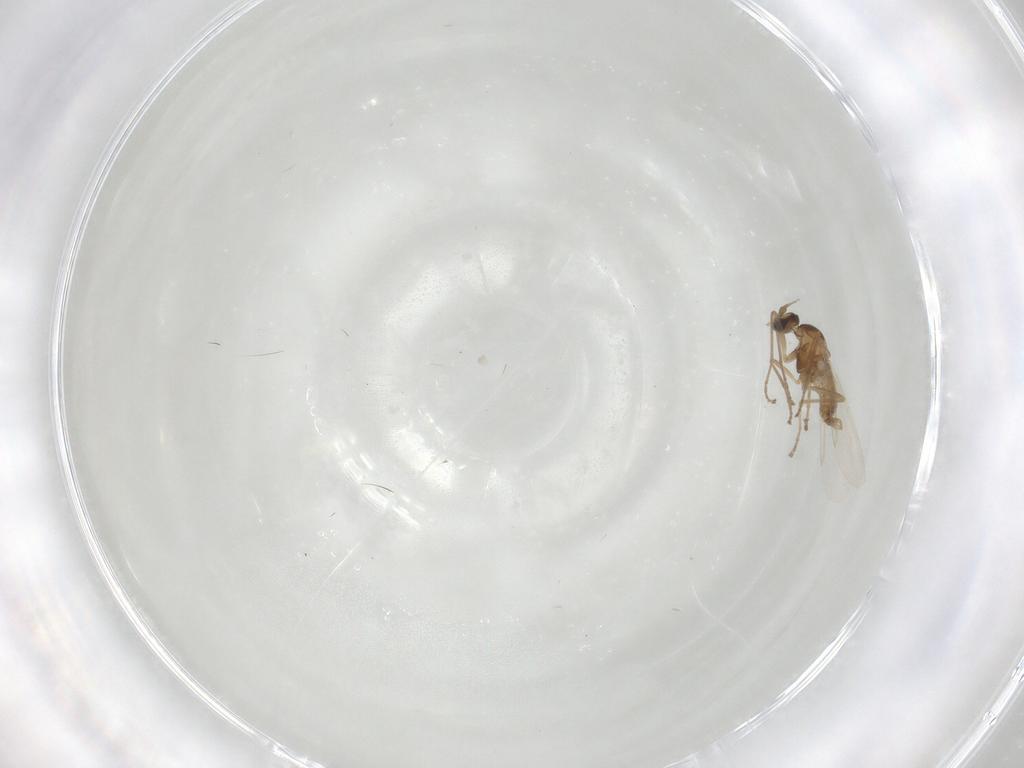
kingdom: Animalia
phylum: Arthropoda
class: Insecta
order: Diptera
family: Cecidomyiidae
